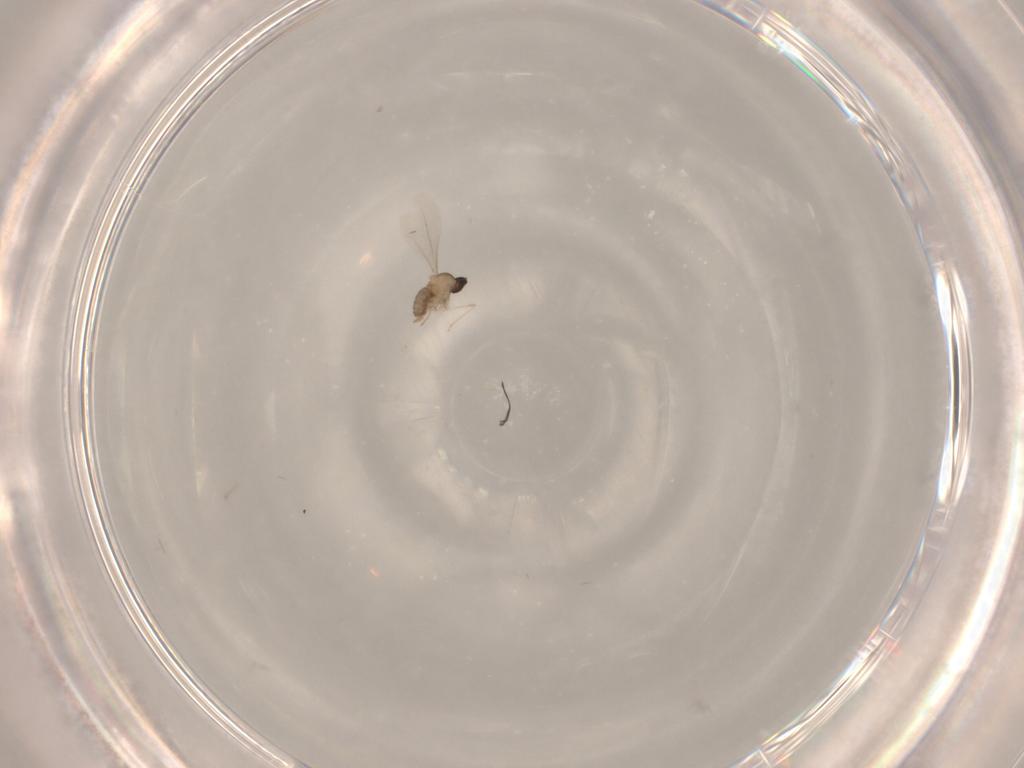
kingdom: Animalia
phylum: Arthropoda
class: Insecta
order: Diptera
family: Cecidomyiidae
